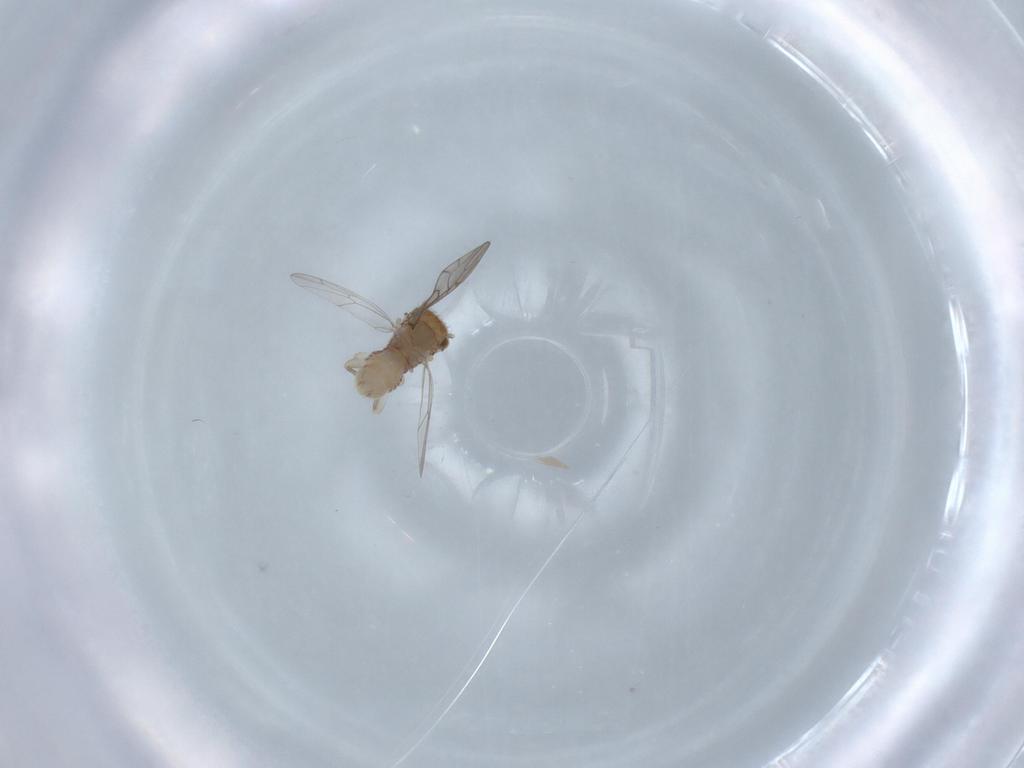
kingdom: Animalia
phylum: Arthropoda
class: Insecta
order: Psocodea
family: Ectopsocidae
